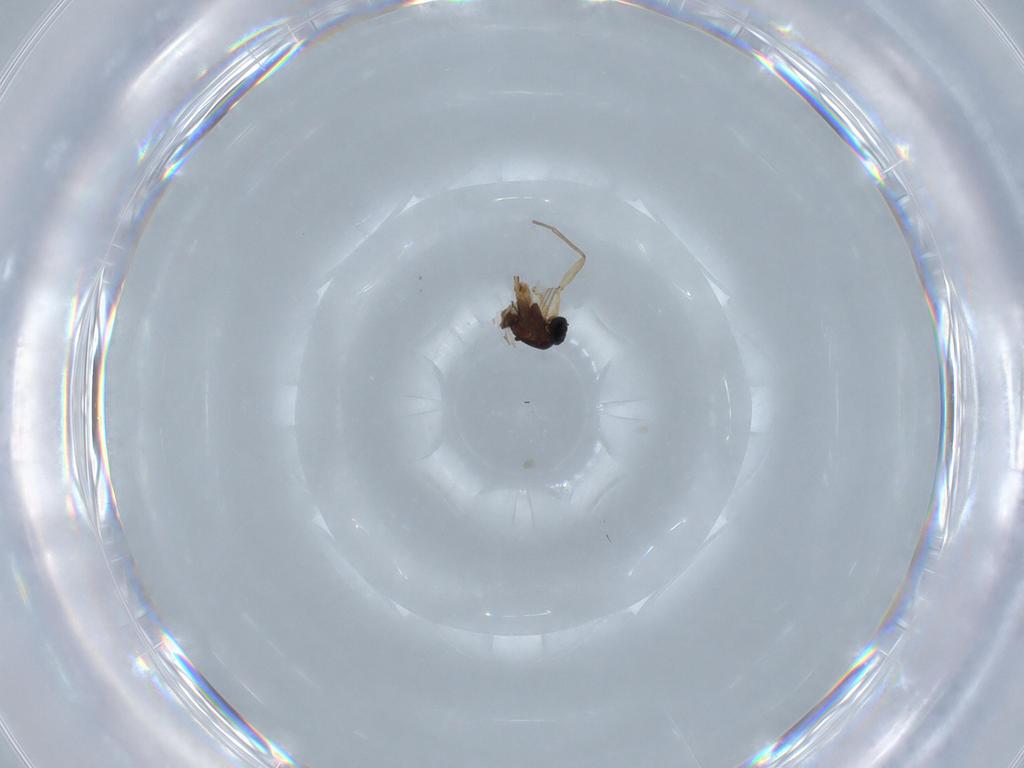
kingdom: Animalia
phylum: Arthropoda
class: Insecta
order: Diptera
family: Sciaridae
